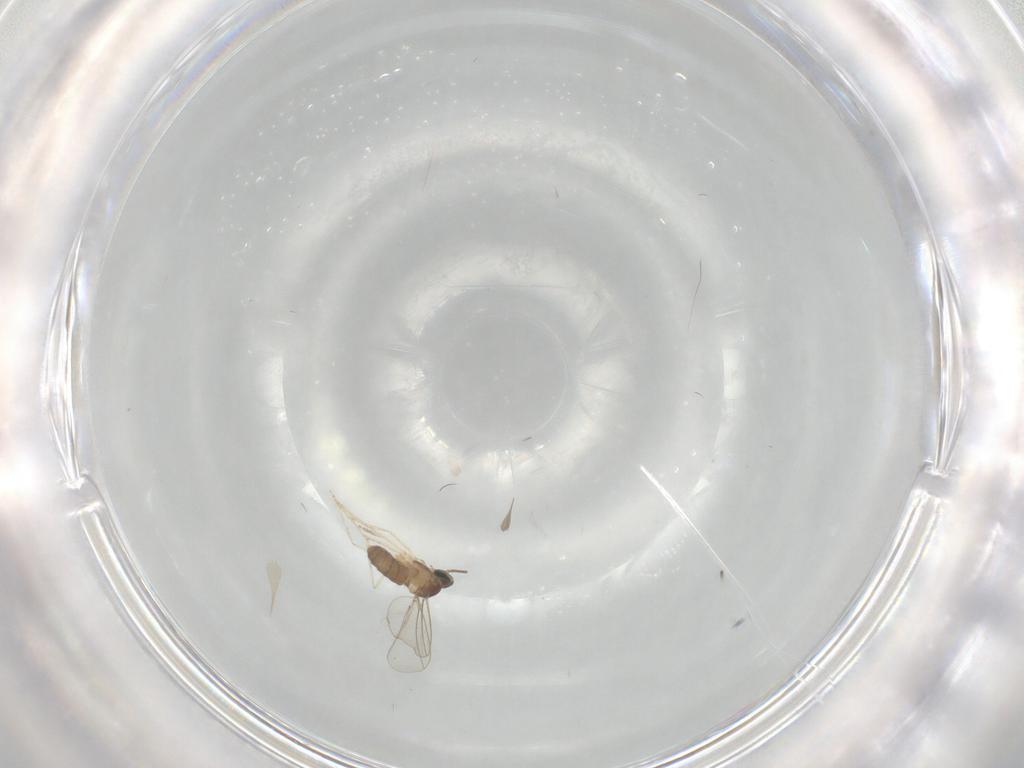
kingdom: Animalia
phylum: Arthropoda
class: Insecta
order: Diptera
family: Cecidomyiidae
